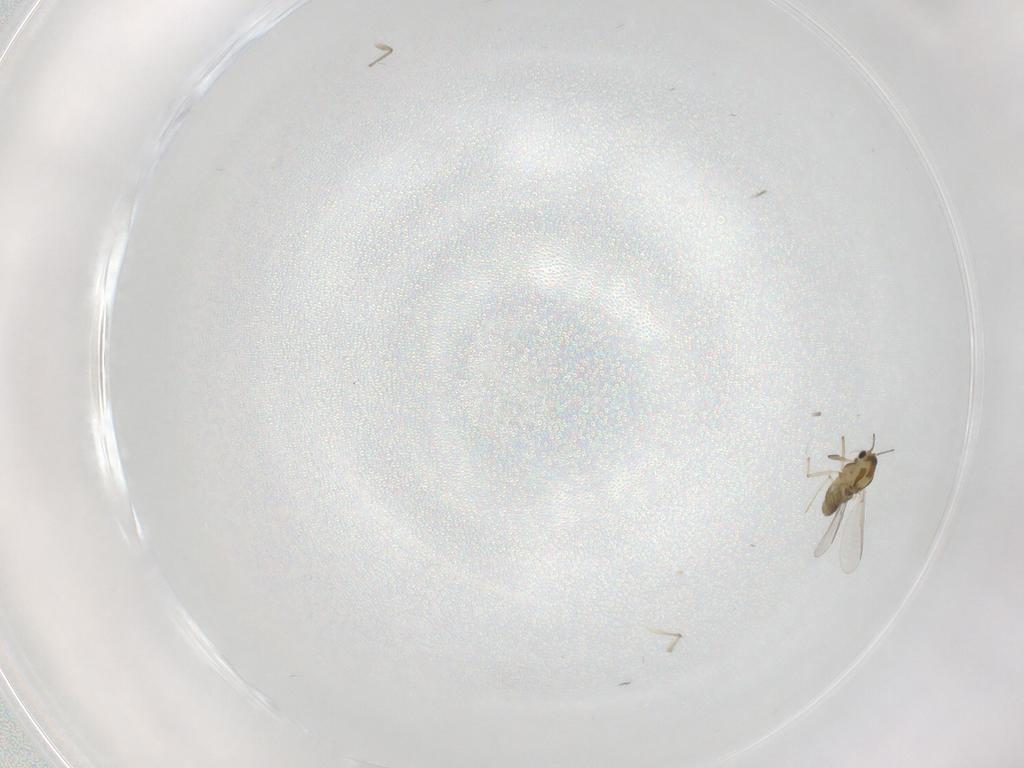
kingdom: Animalia
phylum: Arthropoda
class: Insecta
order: Diptera
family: Chironomidae
